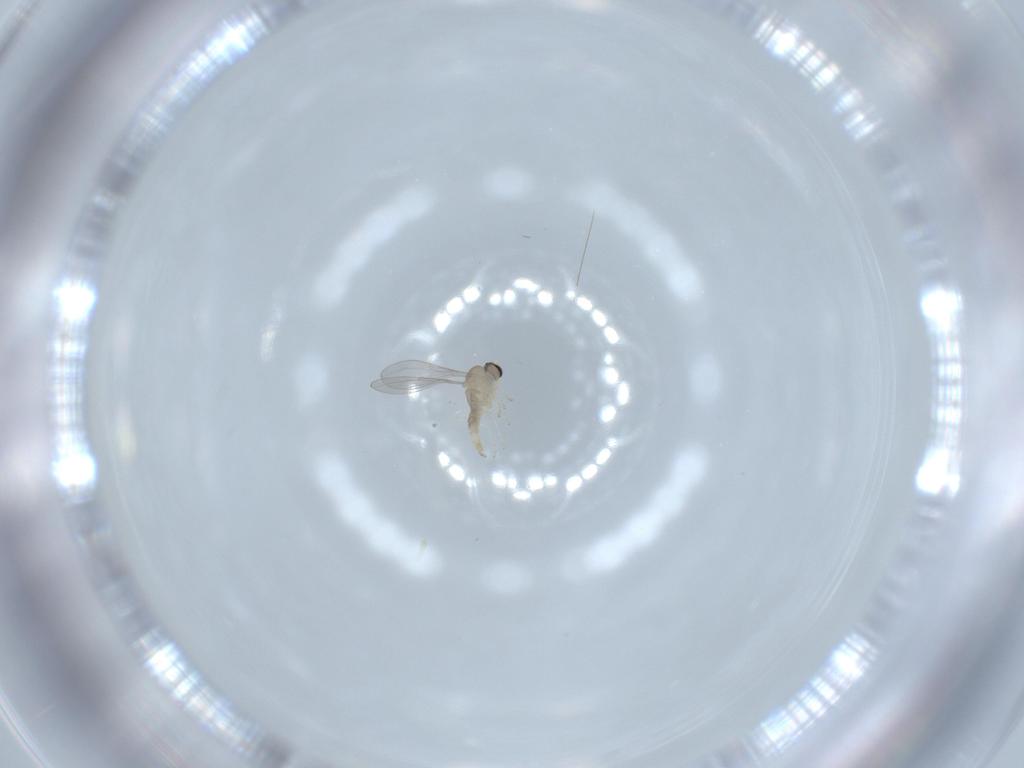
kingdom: Animalia
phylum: Arthropoda
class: Insecta
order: Diptera
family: Cecidomyiidae
